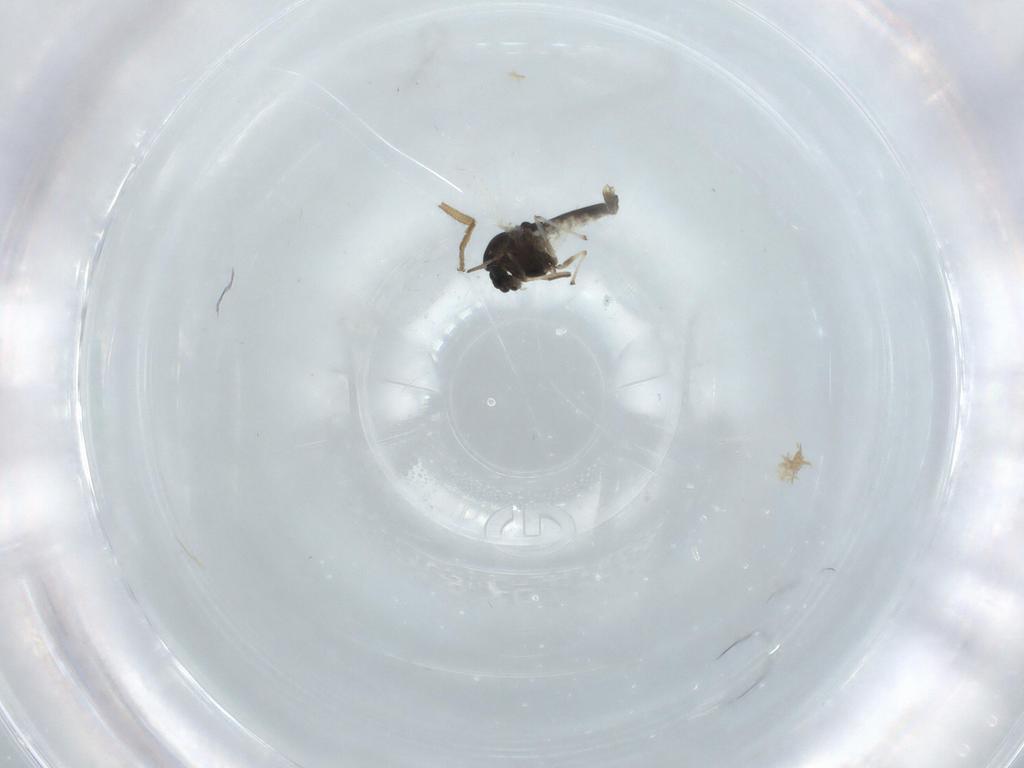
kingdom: Animalia
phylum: Arthropoda
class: Insecta
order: Diptera
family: Chironomidae
